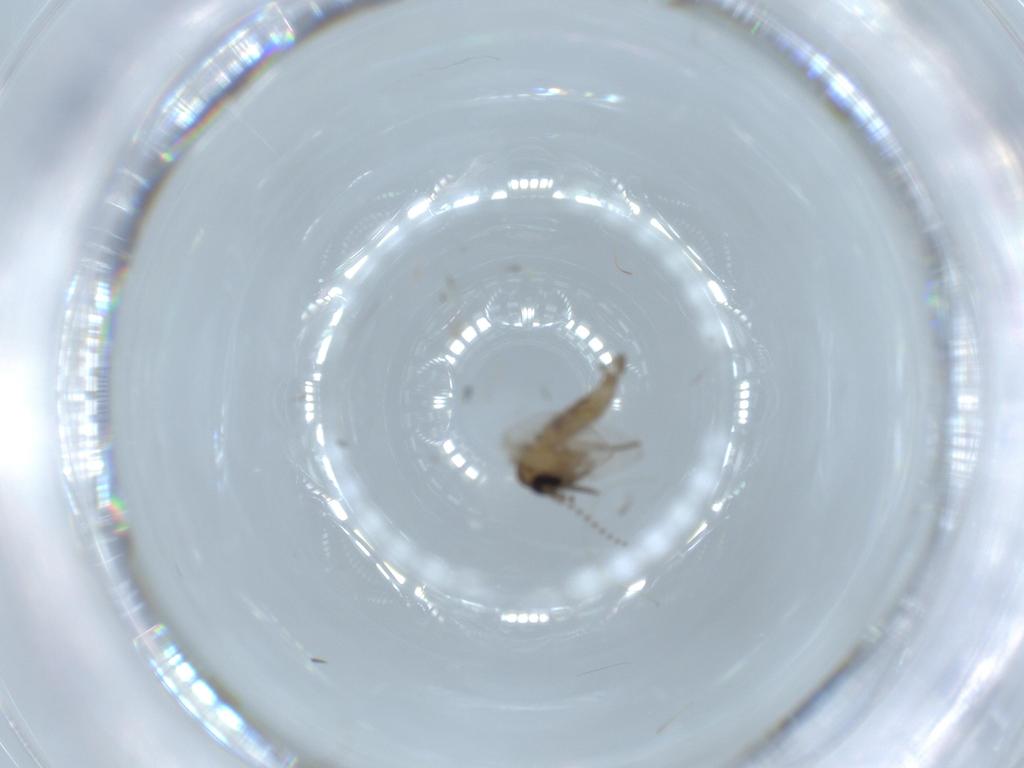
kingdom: Animalia
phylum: Arthropoda
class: Insecta
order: Diptera
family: Psychodidae
